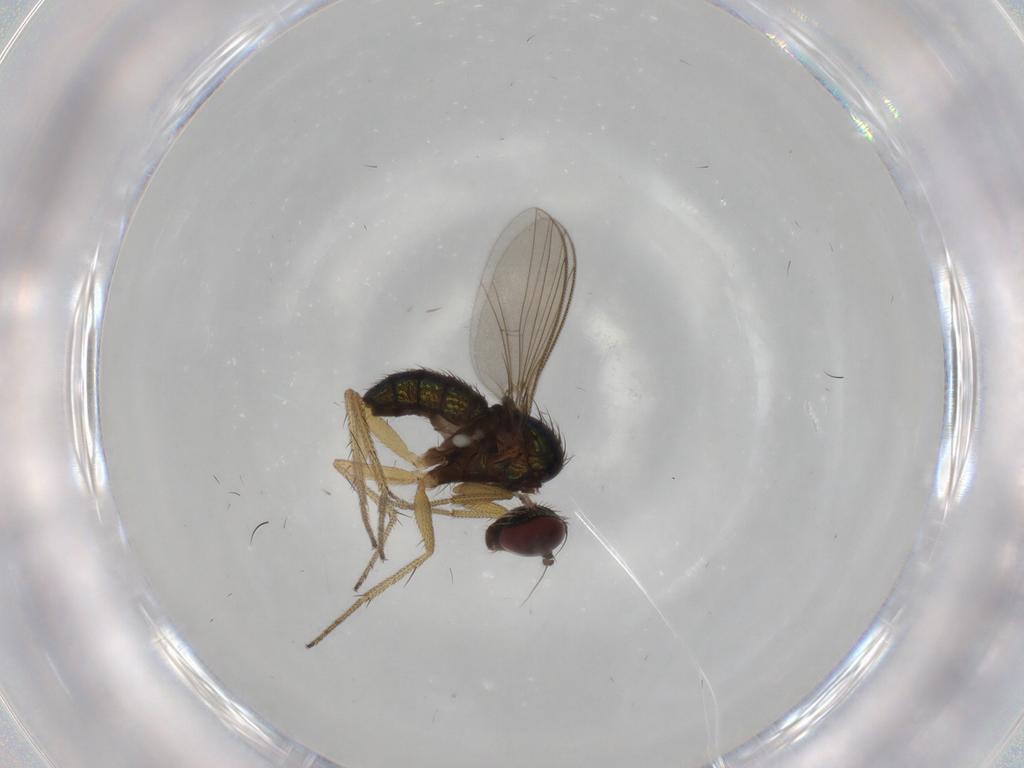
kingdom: Animalia
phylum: Arthropoda
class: Insecta
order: Diptera
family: Dolichopodidae
